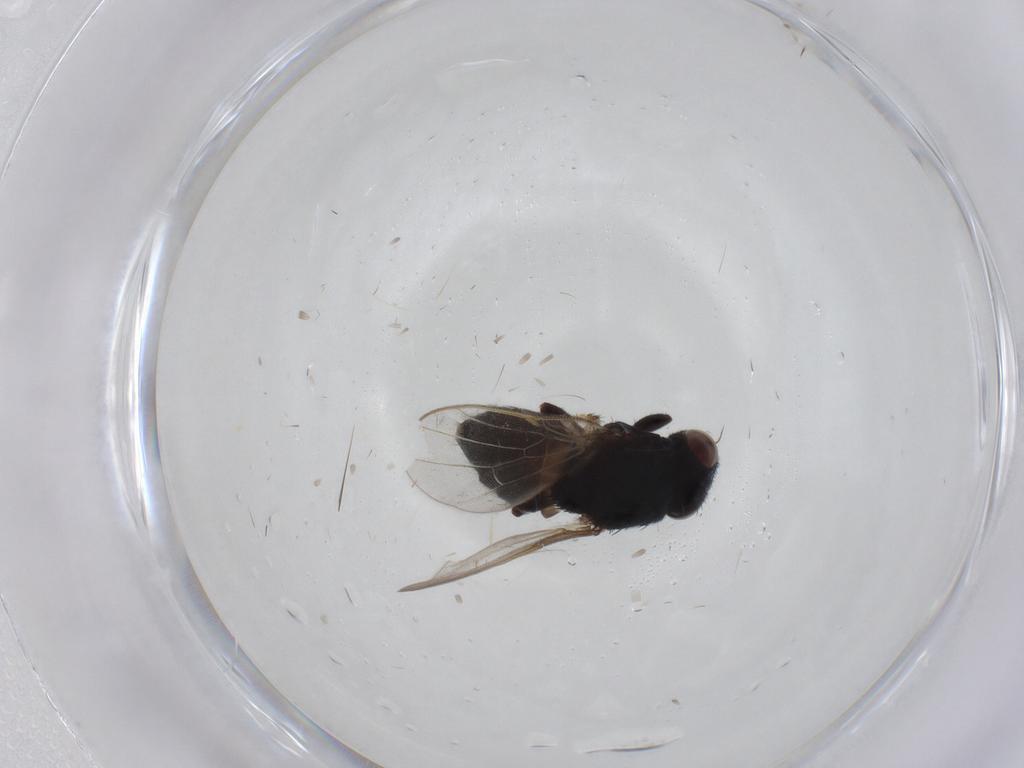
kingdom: Animalia
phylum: Arthropoda
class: Insecta
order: Diptera
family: Chloropidae
